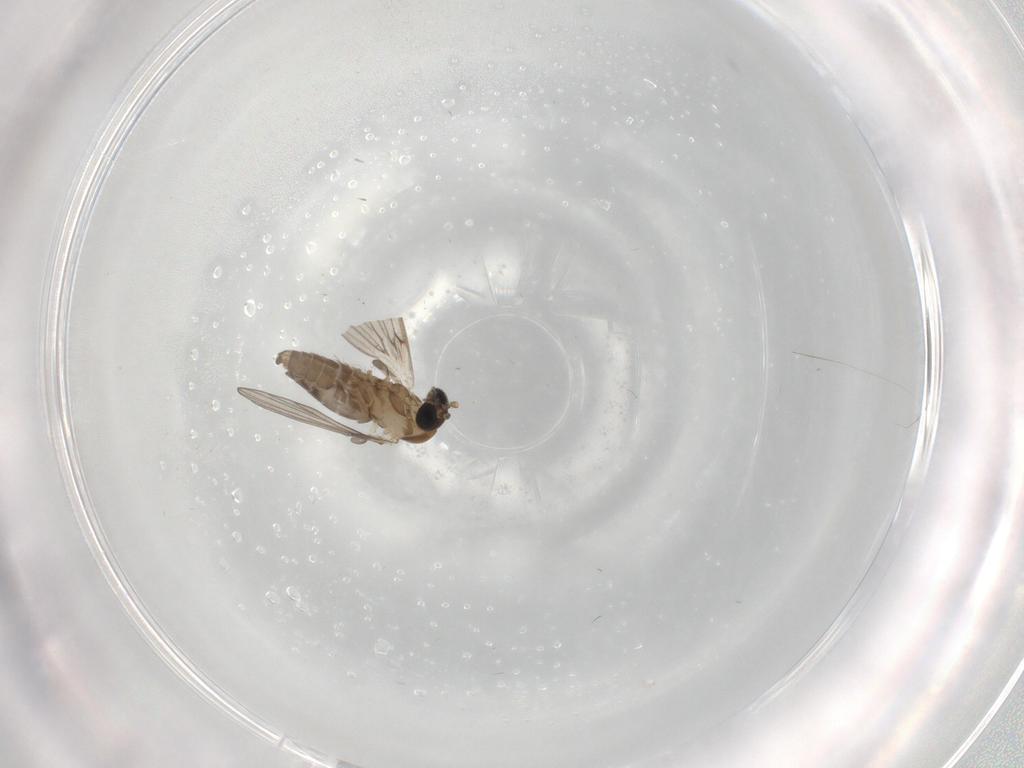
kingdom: Animalia
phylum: Arthropoda
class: Insecta
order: Diptera
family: Psychodidae
